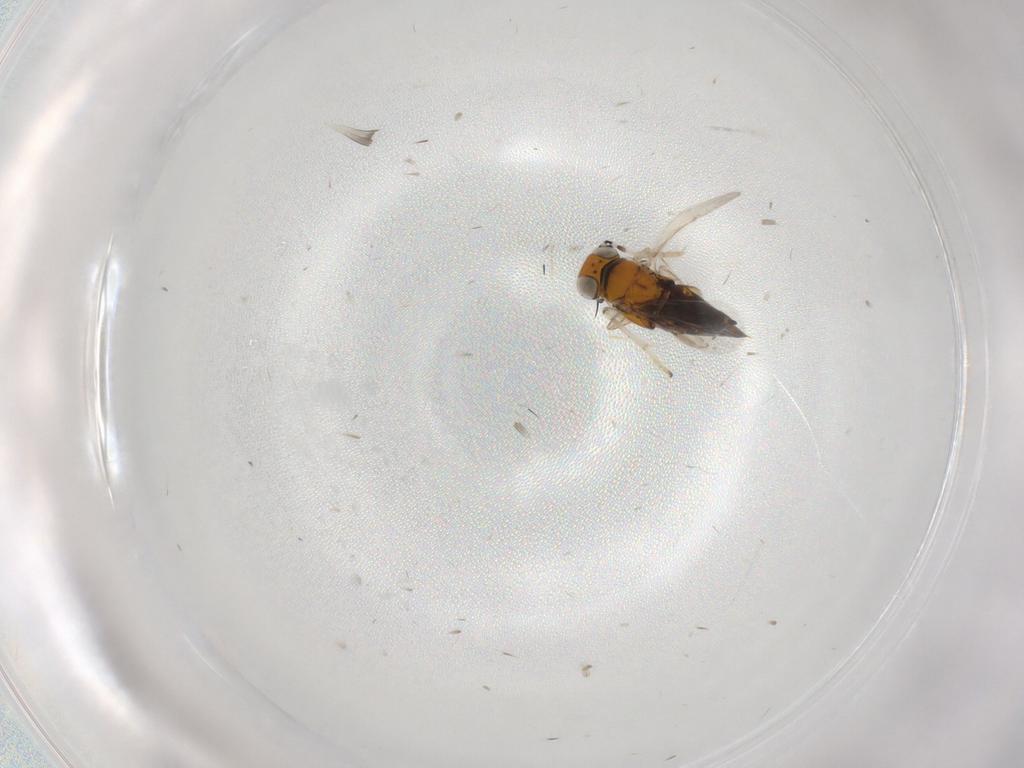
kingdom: Animalia
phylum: Arthropoda
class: Insecta
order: Hymenoptera
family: Encyrtidae
